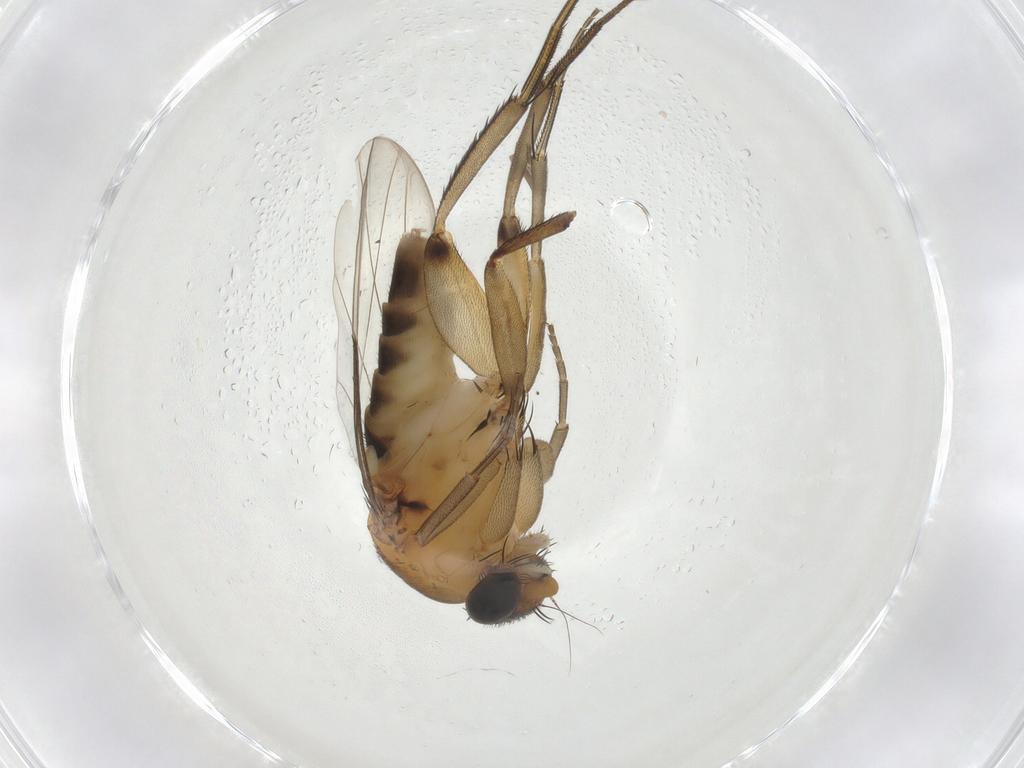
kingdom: Animalia
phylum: Arthropoda
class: Insecta
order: Diptera
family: Phoridae
